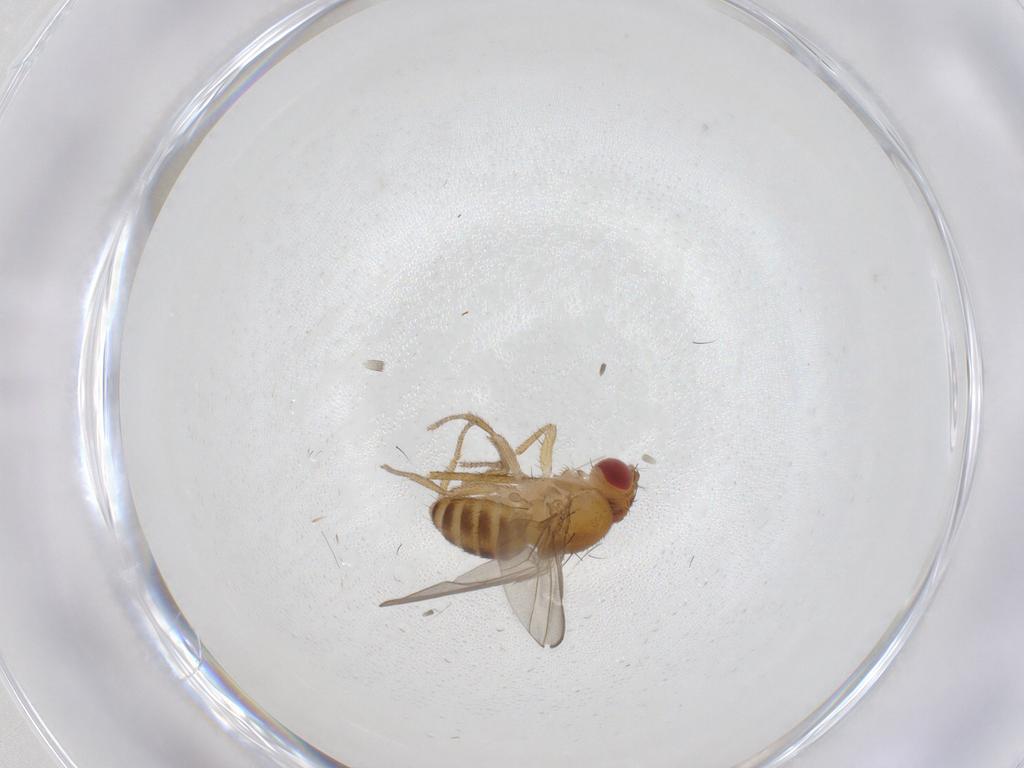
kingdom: Animalia
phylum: Arthropoda
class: Insecta
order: Diptera
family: Drosophilidae
